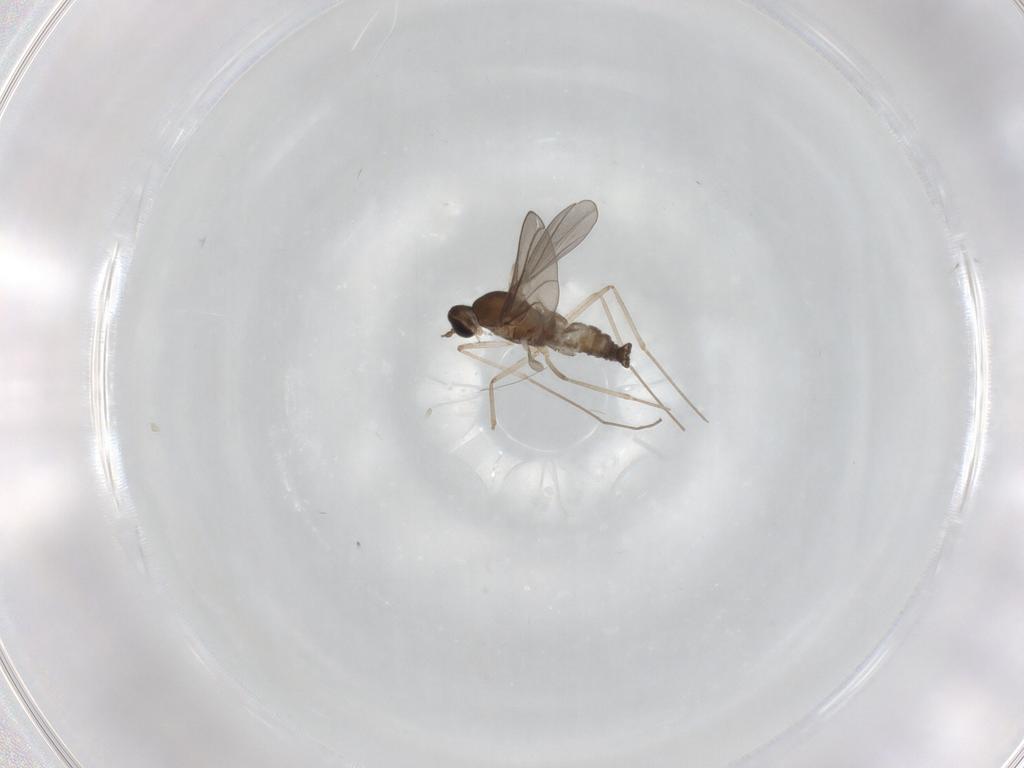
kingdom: Animalia
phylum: Arthropoda
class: Insecta
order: Diptera
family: Cecidomyiidae
